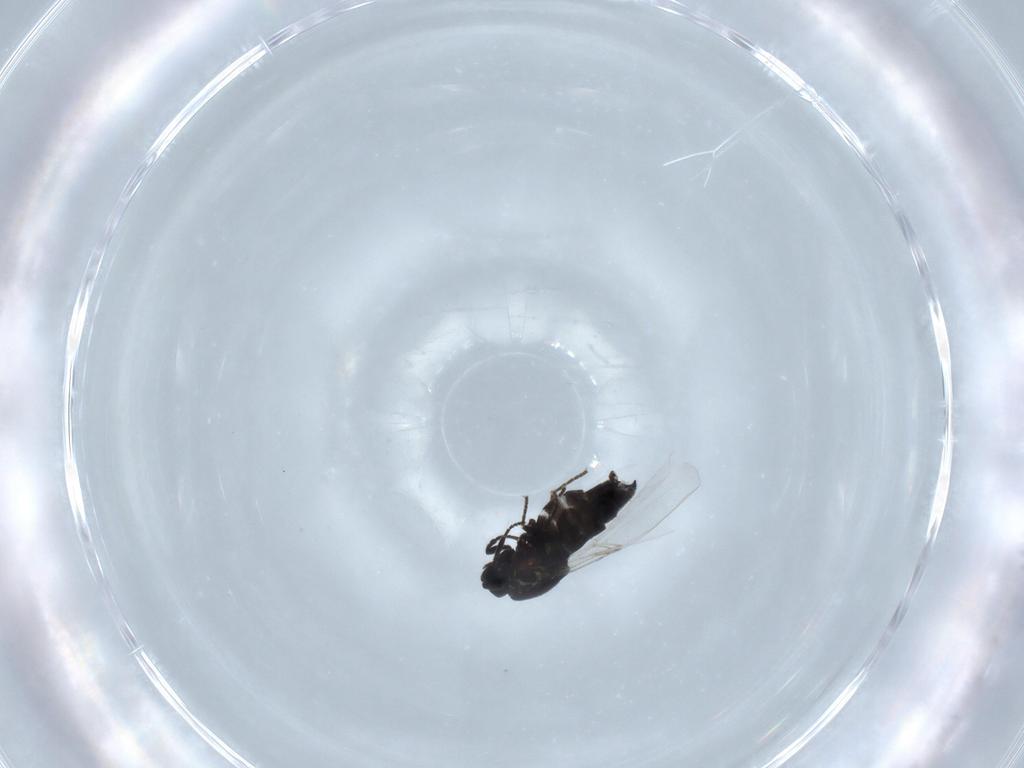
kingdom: Animalia
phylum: Arthropoda
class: Insecta
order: Diptera
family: Scatopsidae
